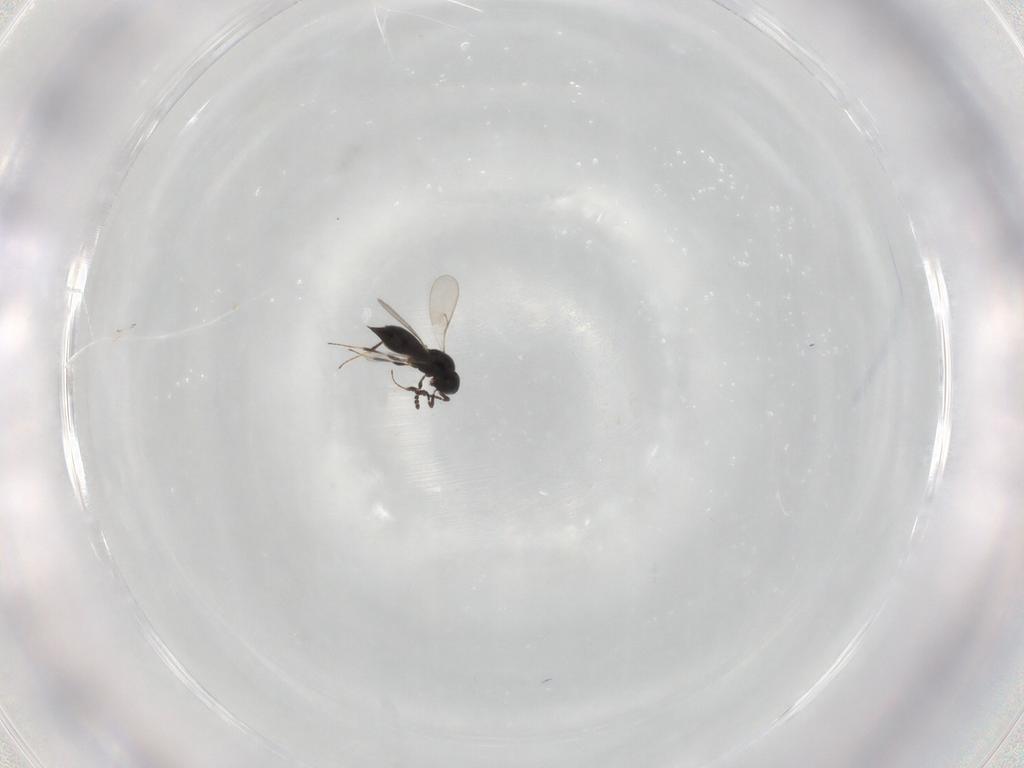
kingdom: Animalia
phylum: Arthropoda
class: Insecta
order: Hymenoptera
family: Scelionidae
